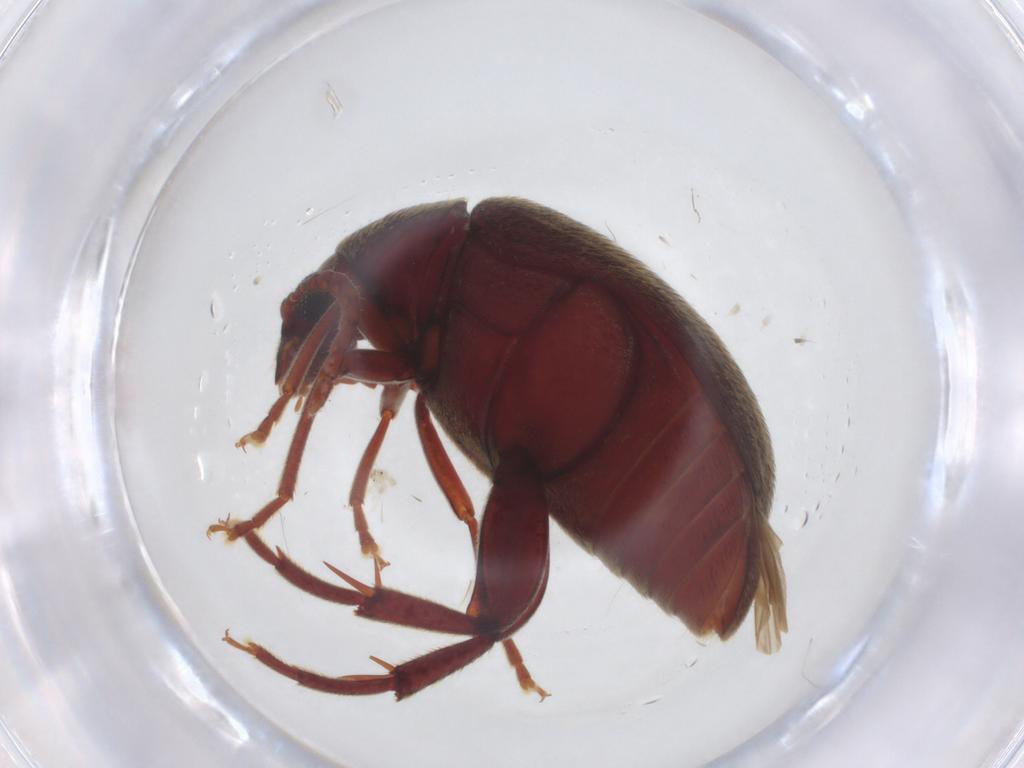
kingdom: Animalia
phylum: Arthropoda
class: Insecta
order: Coleoptera
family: Chrysomelidae
